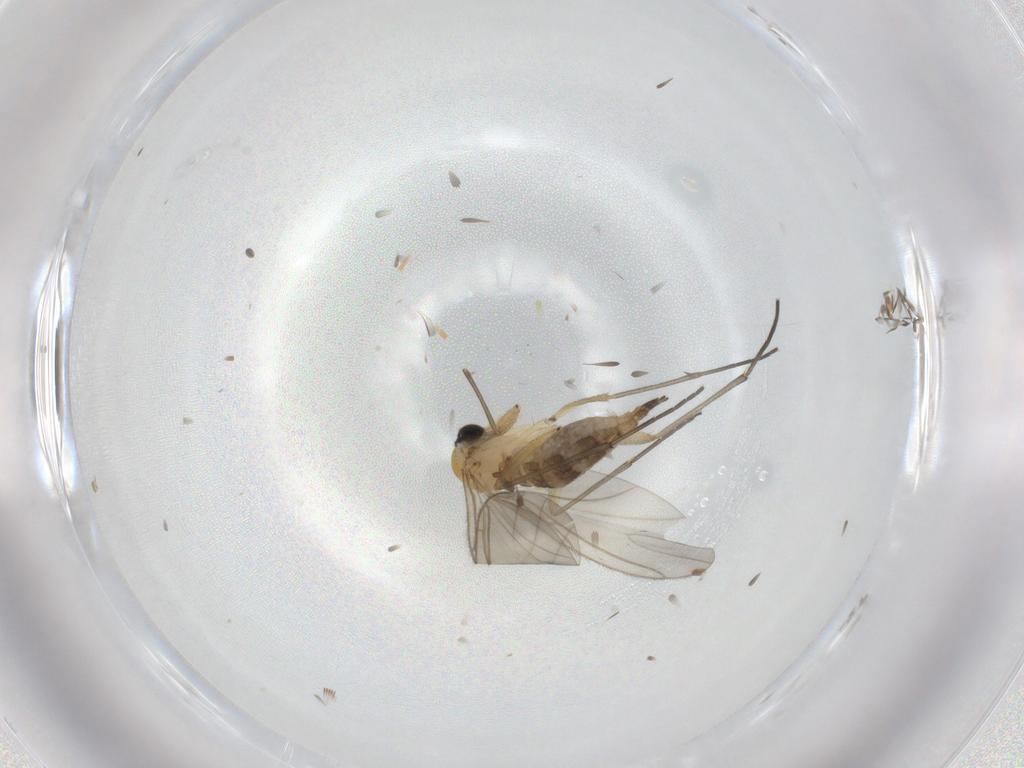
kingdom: Animalia
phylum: Arthropoda
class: Insecta
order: Diptera
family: Sciaridae
